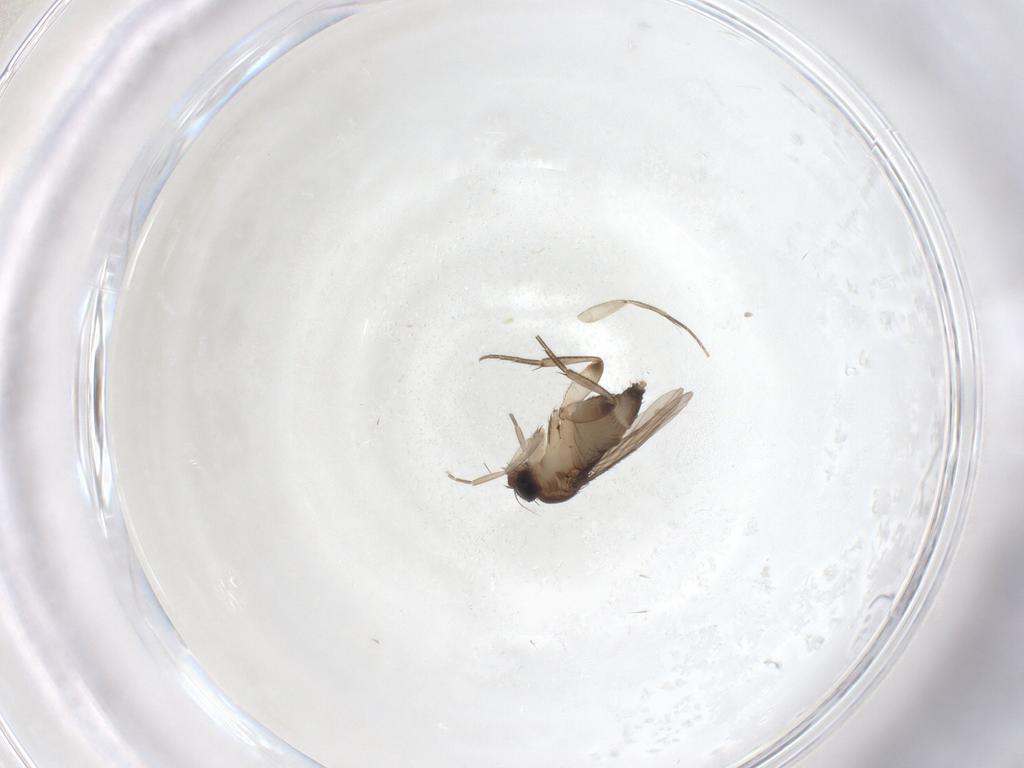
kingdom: Animalia
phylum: Arthropoda
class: Insecta
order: Diptera
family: Phoridae
